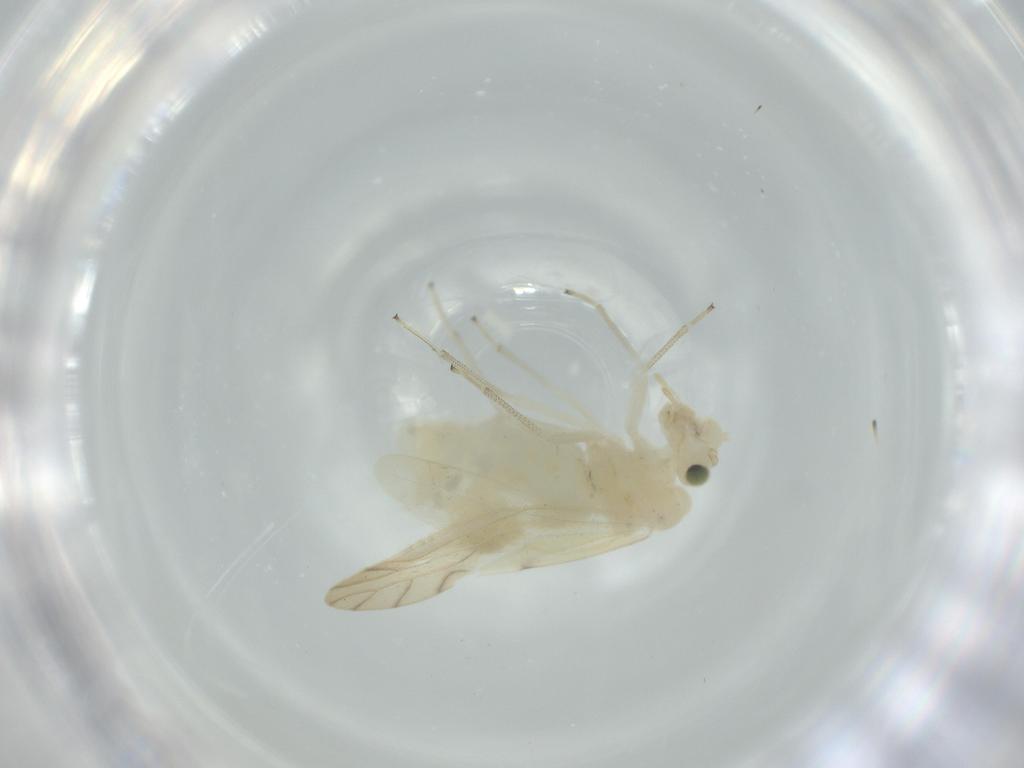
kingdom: Animalia
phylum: Arthropoda
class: Insecta
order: Psocodea
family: Caeciliusidae
